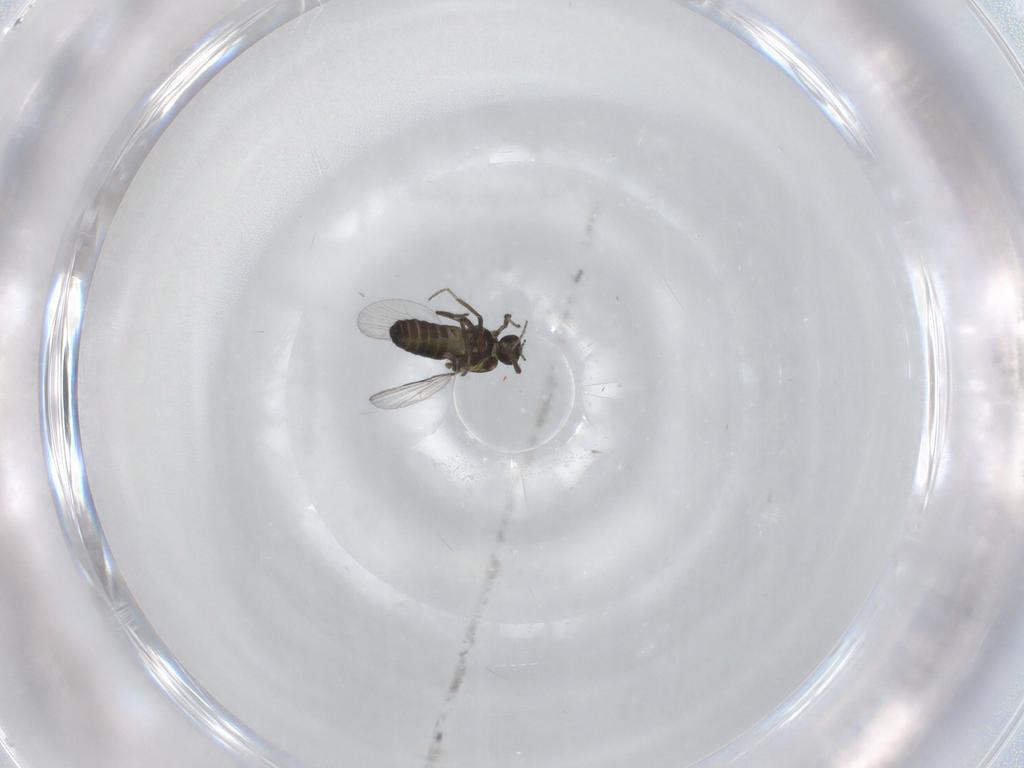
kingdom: Animalia
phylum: Arthropoda
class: Insecta
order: Diptera
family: Ceratopogonidae
